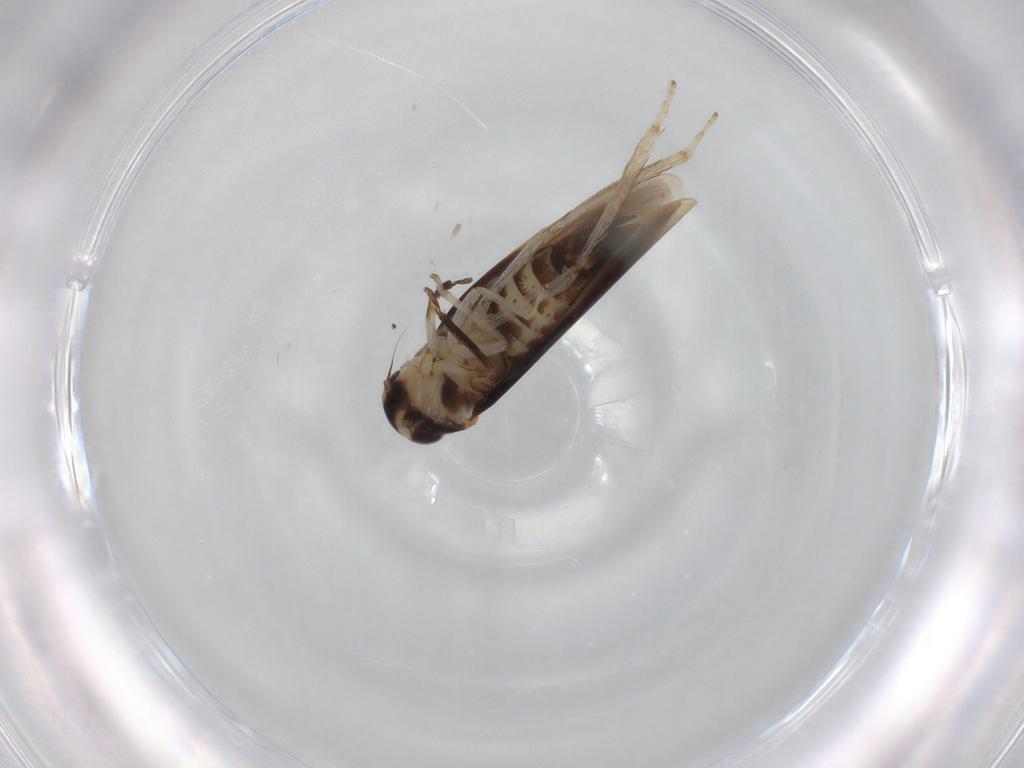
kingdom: Animalia
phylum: Arthropoda
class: Insecta
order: Hemiptera
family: Cicadellidae
